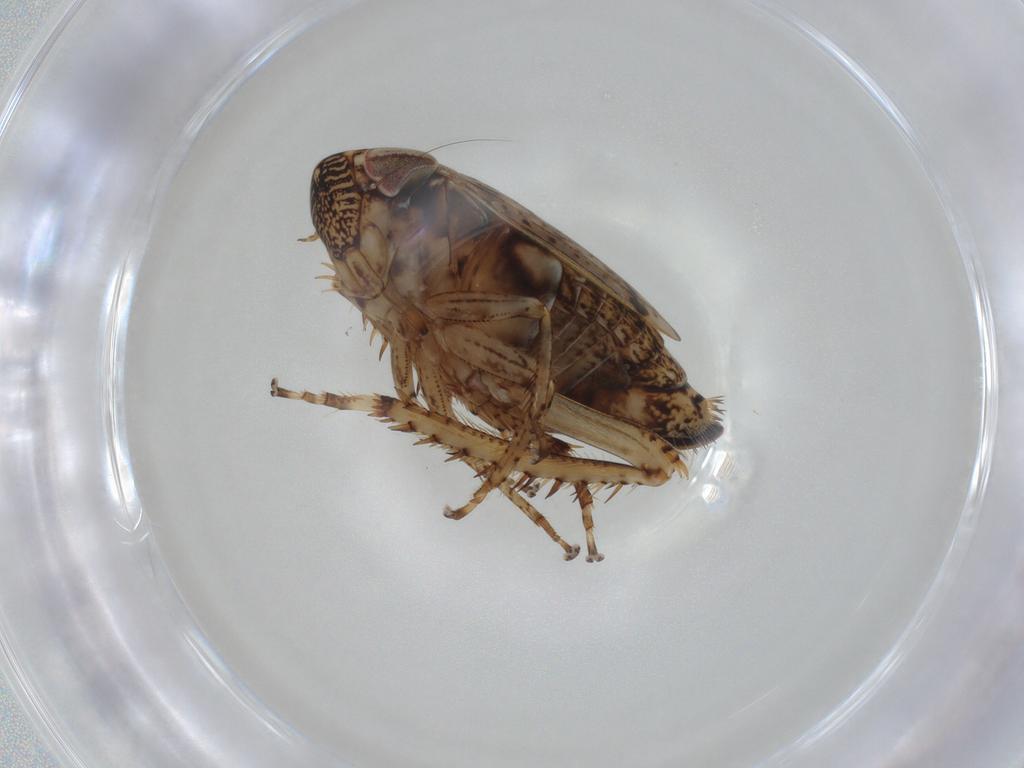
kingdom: Animalia
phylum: Arthropoda
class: Insecta
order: Hemiptera
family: Cicadellidae
